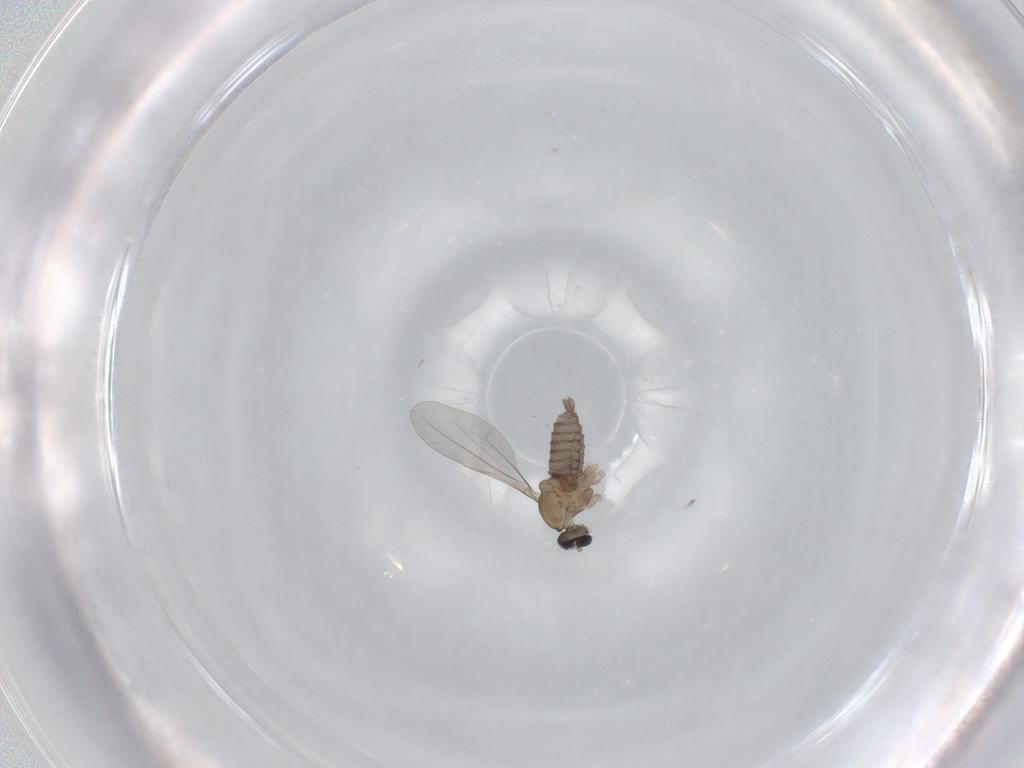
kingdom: Animalia
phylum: Arthropoda
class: Insecta
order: Diptera
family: Cecidomyiidae
